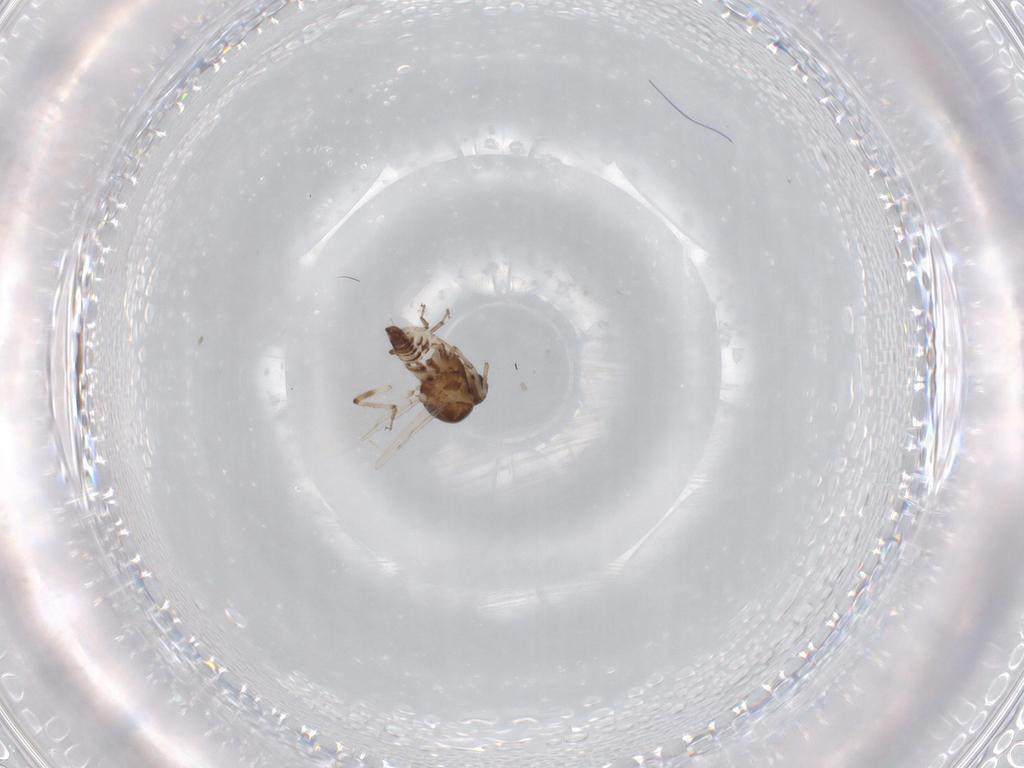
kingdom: Animalia
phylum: Arthropoda
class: Insecta
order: Diptera
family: Ceratopogonidae
